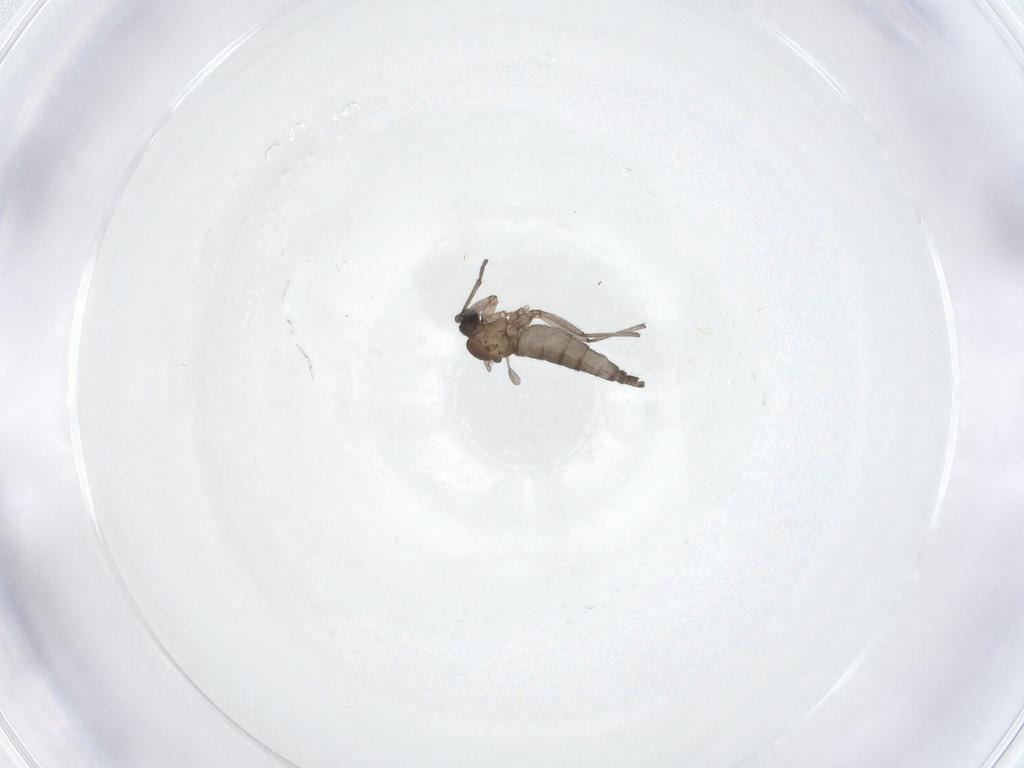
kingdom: Animalia
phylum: Arthropoda
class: Insecta
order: Diptera
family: Sciaridae
